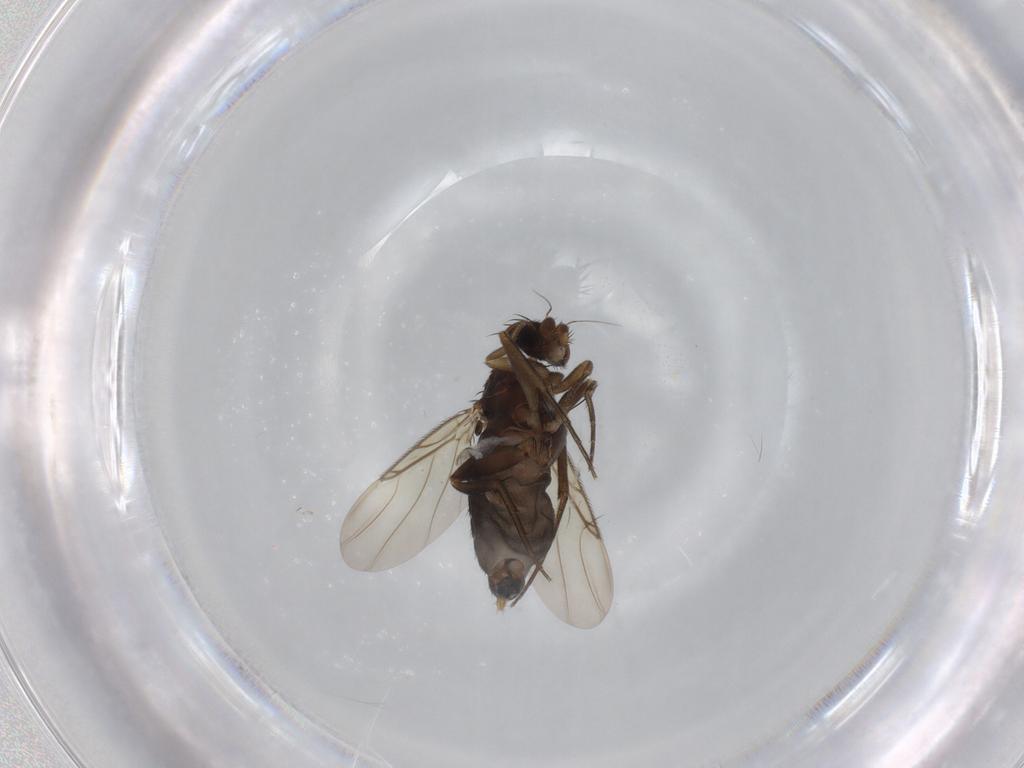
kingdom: Animalia
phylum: Arthropoda
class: Insecta
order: Diptera
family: Phoridae
